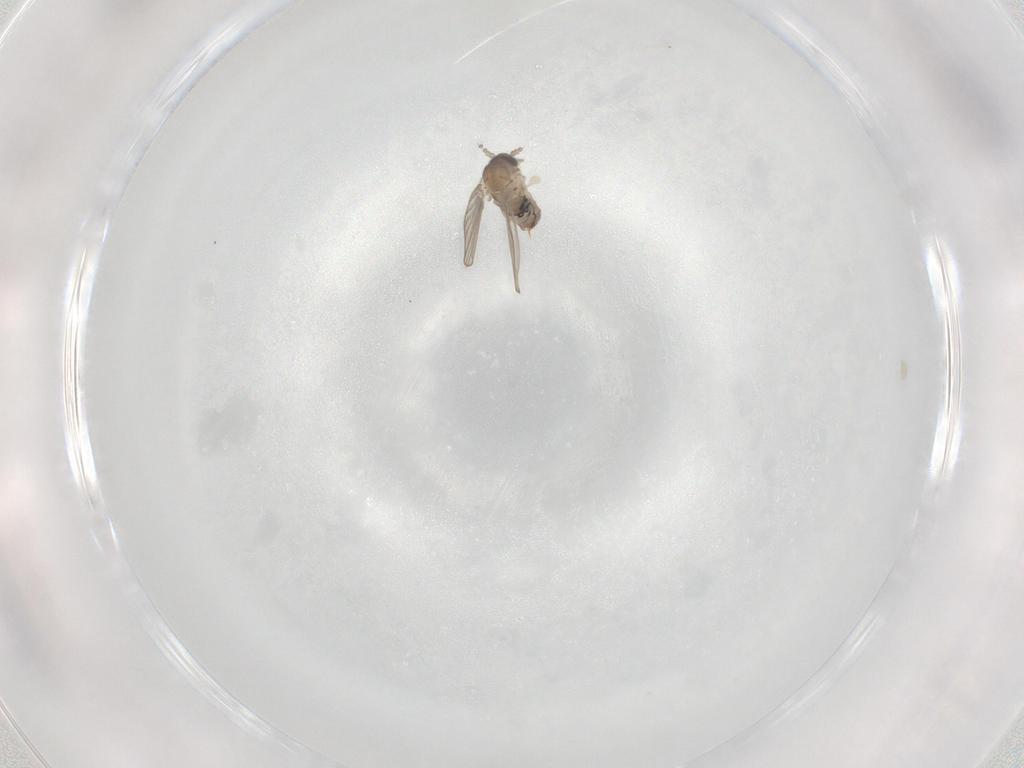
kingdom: Animalia
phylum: Arthropoda
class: Insecta
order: Diptera
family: Psychodidae
